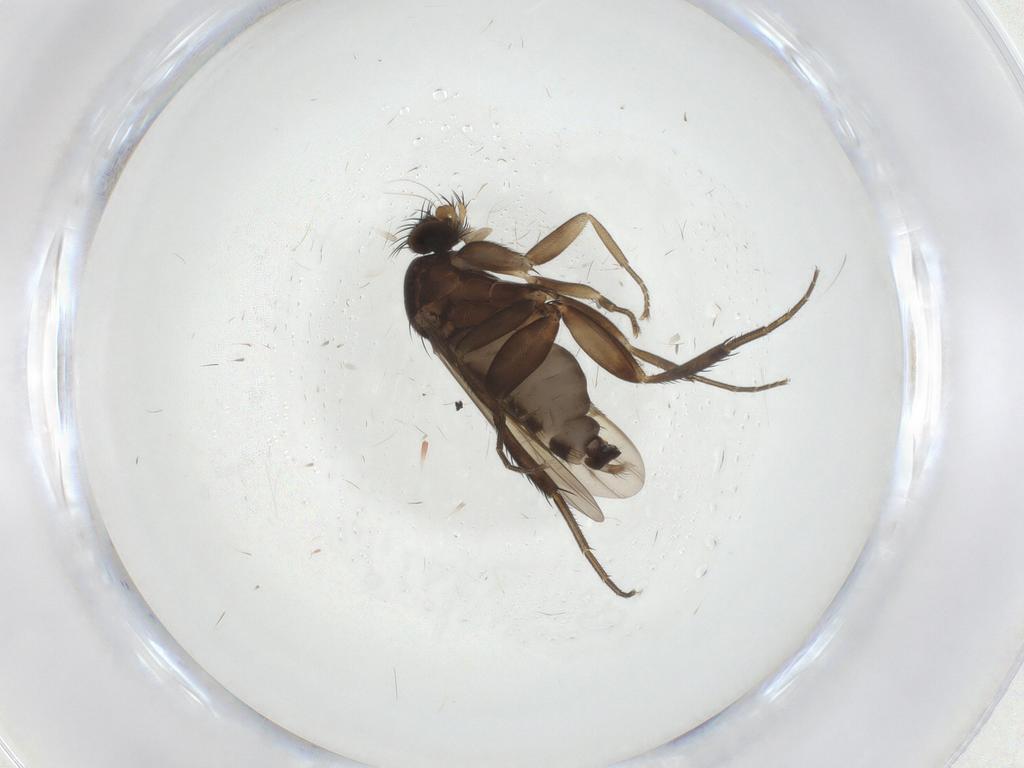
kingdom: Animalia
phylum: Arthropoda
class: Insecta
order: Diptera
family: Phoridae
